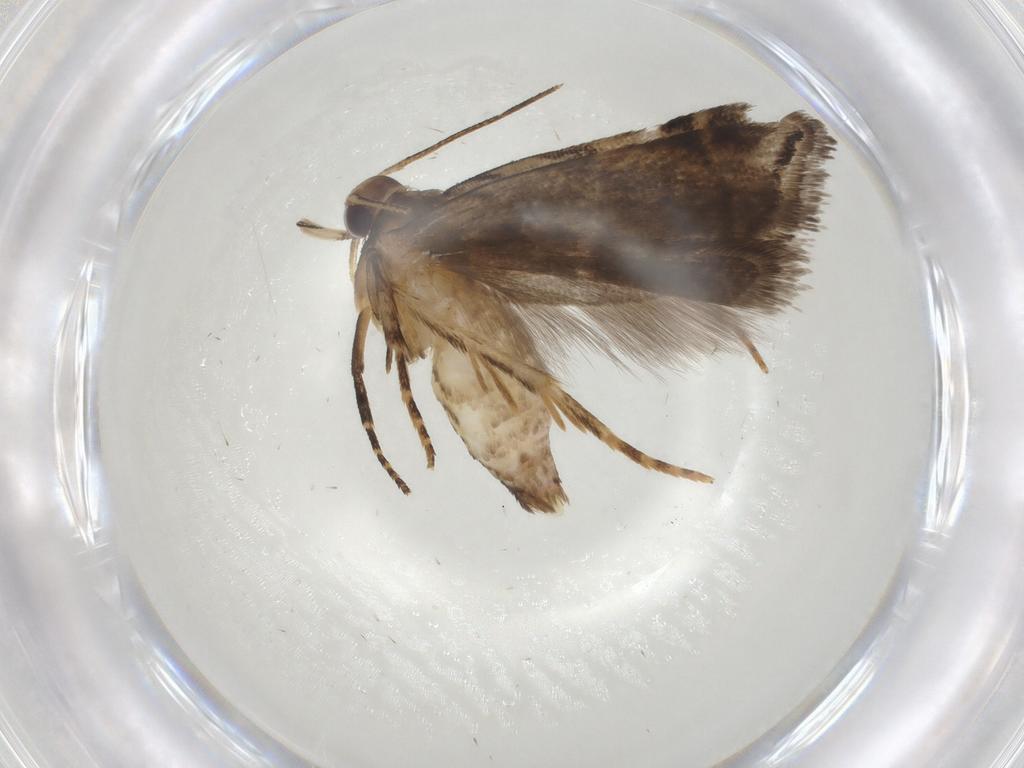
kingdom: Animalia
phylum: Arthropoda
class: Insecta
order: Lepidoptera
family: Gelechiidae
